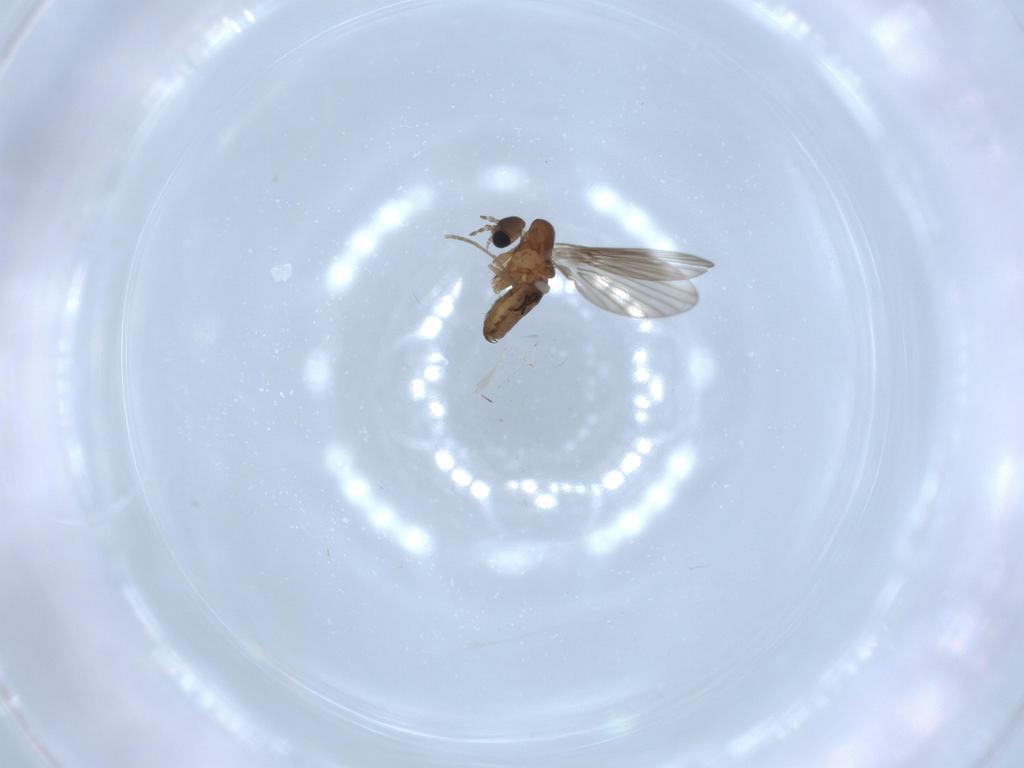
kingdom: Animalia
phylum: Arthropoda
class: Insecta
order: Diptera
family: Psychodidae
